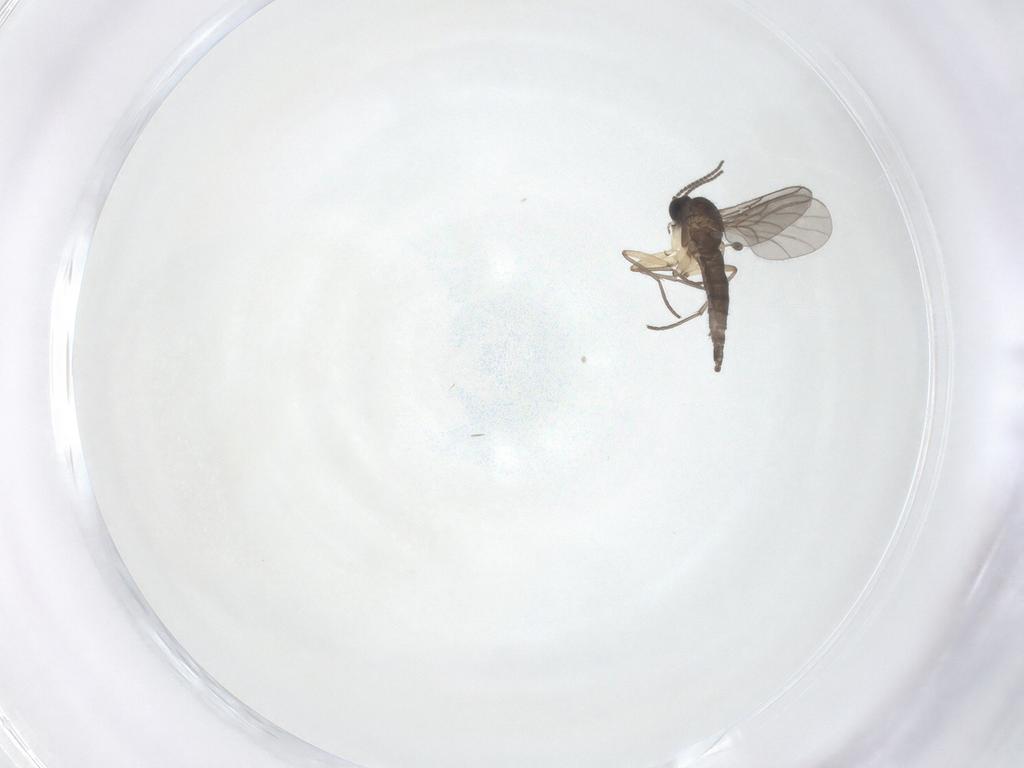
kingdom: Animalia
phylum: Arthropoda
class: Insecta
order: Diptera
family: Sciaridae
